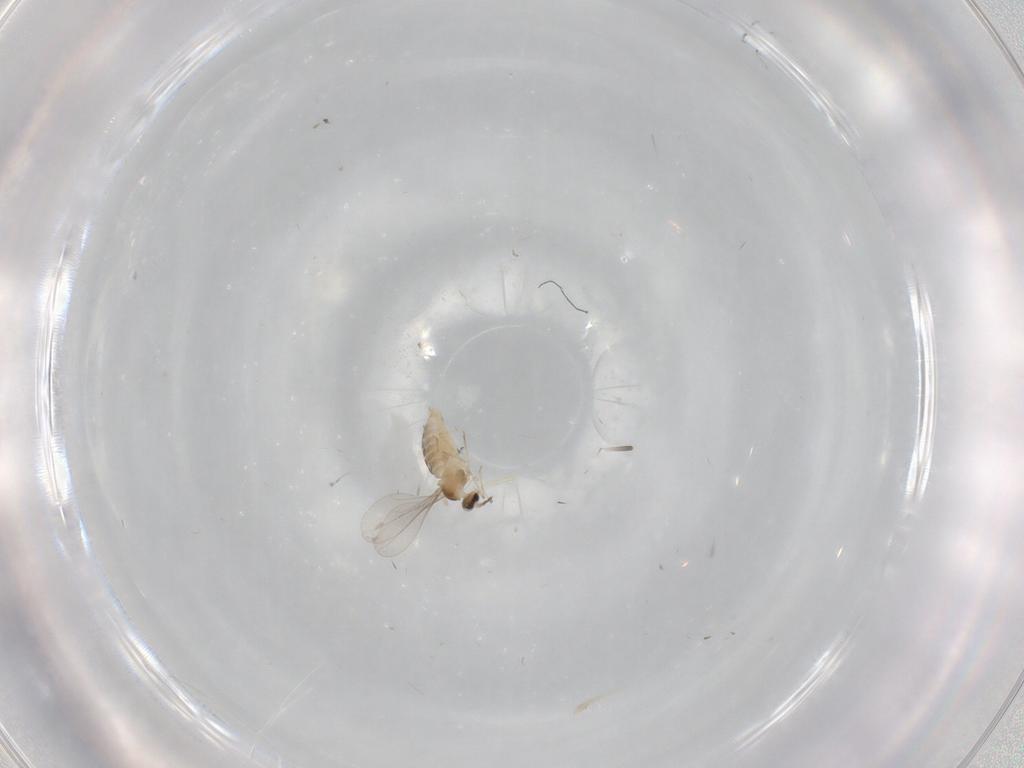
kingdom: Animalia
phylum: Arthropoda
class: Insecta
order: Diptera
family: Cecidomyiidae
